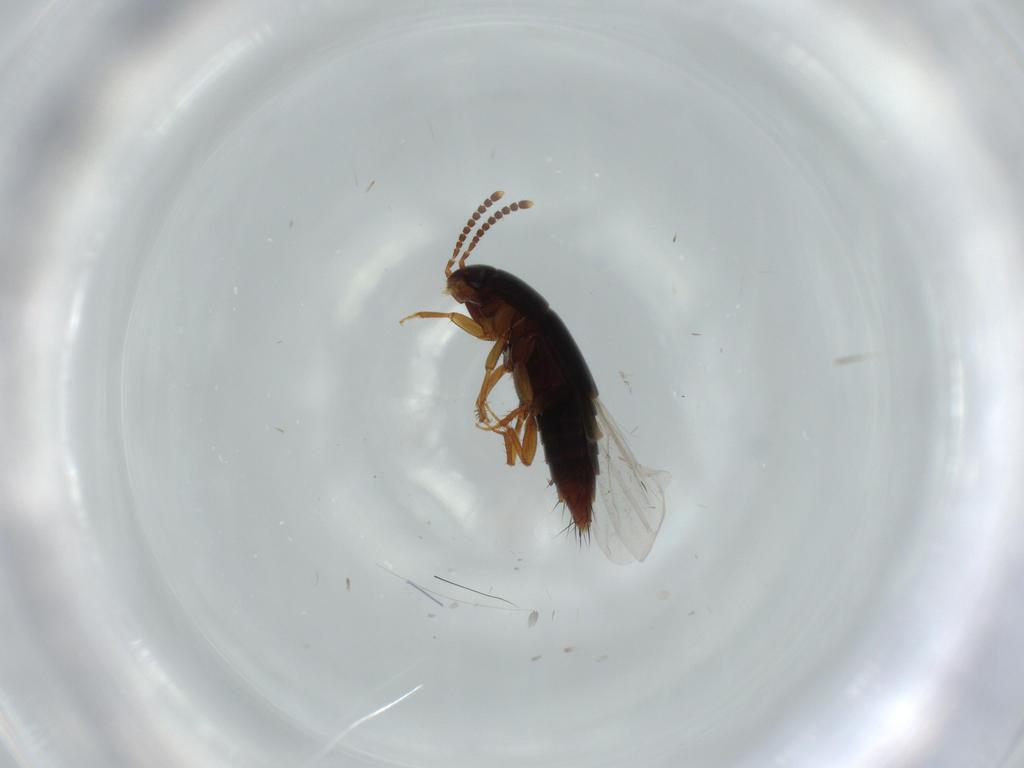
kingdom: Animalia
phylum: Arthropoda
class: Insecta
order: Coleoptera
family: Staphylinidae
